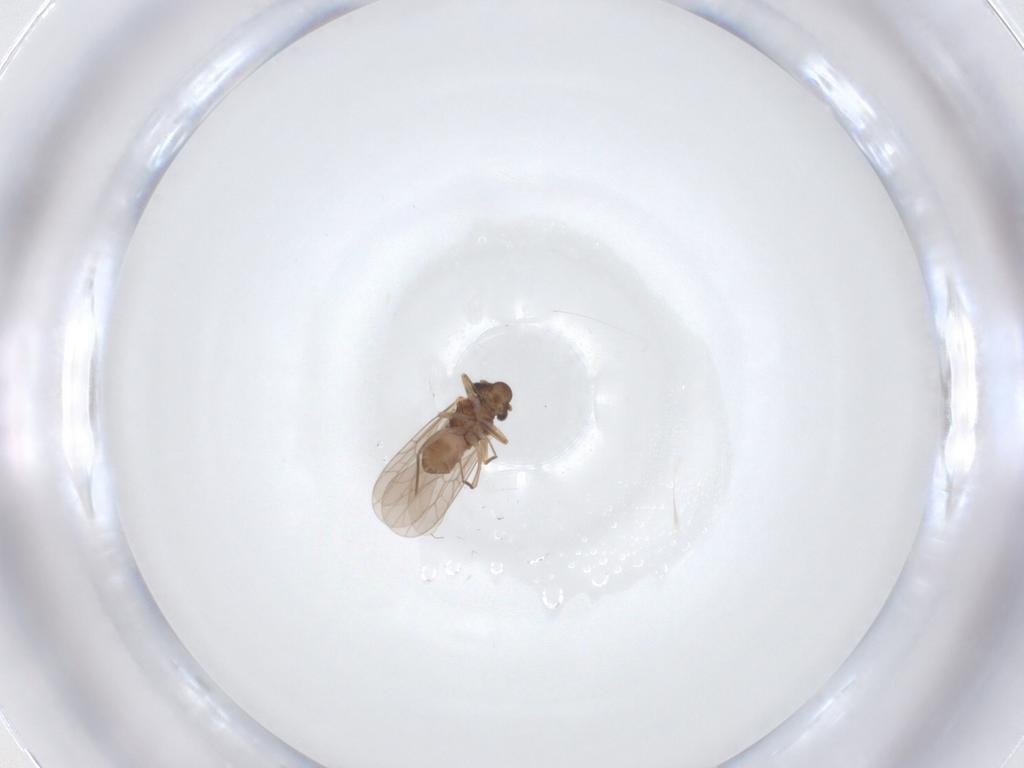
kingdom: Animalia
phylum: Arthropoda
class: Insecta
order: Psocodea
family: Lepidopsocidae
